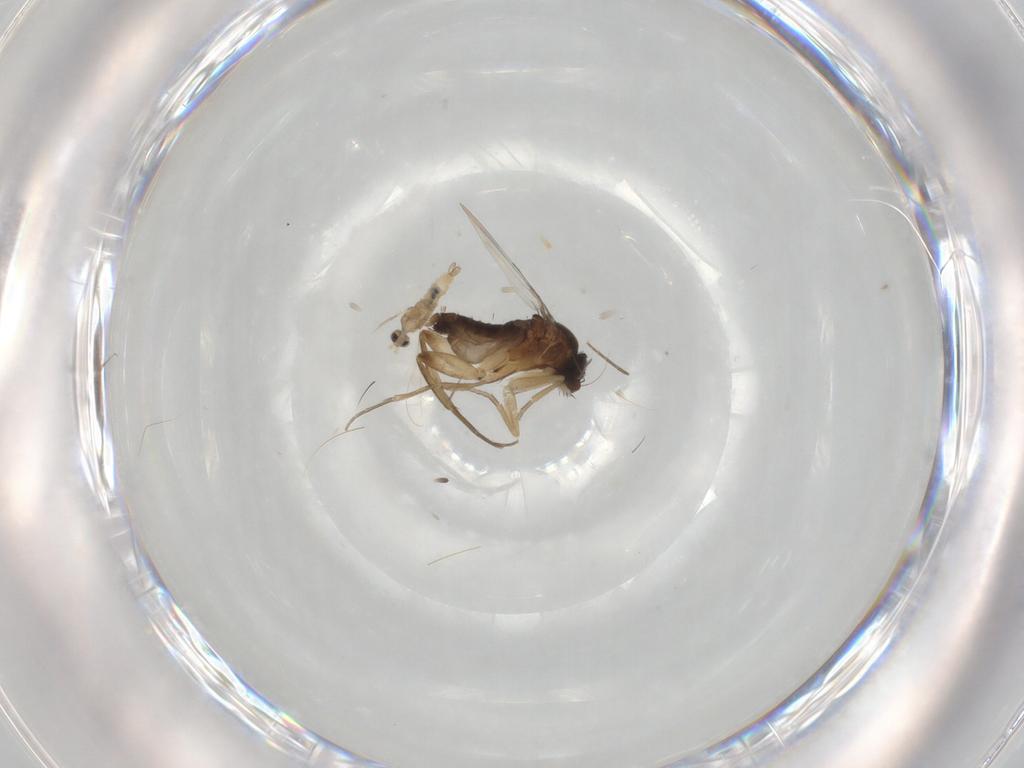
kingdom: Animalia
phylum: Arthropoda
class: Insecta
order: Diptera
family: Cecidomyiidae
